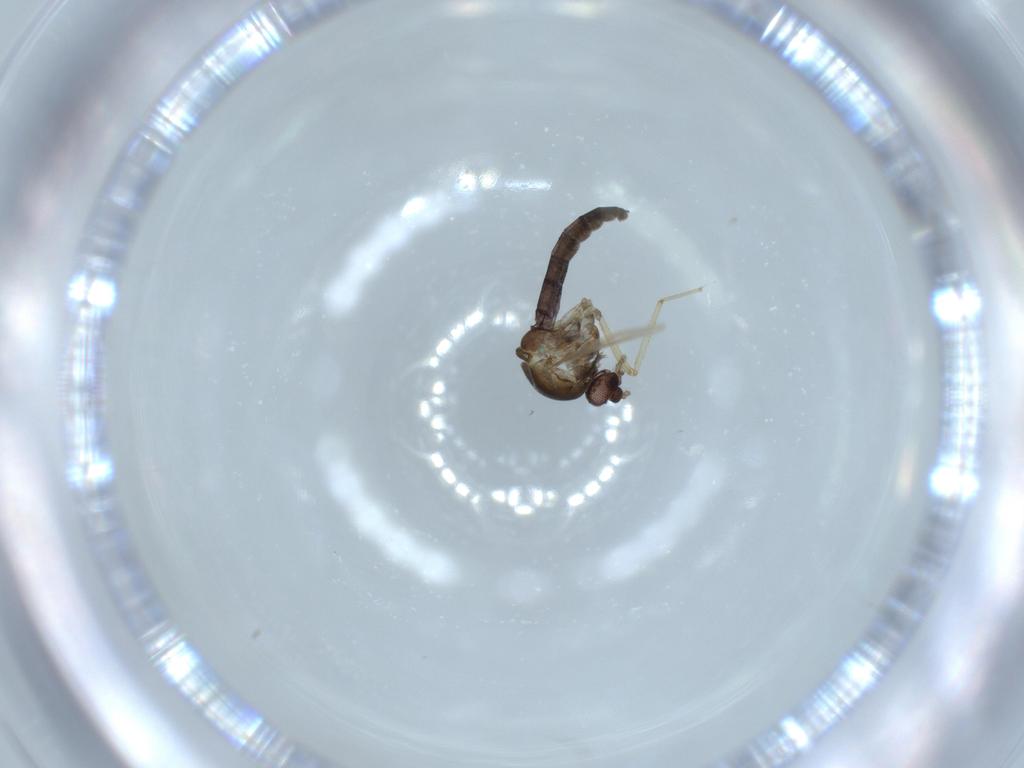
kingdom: Animalia
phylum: Arthropoda
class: Insecta
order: Diptera
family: Ceratopogonidae
